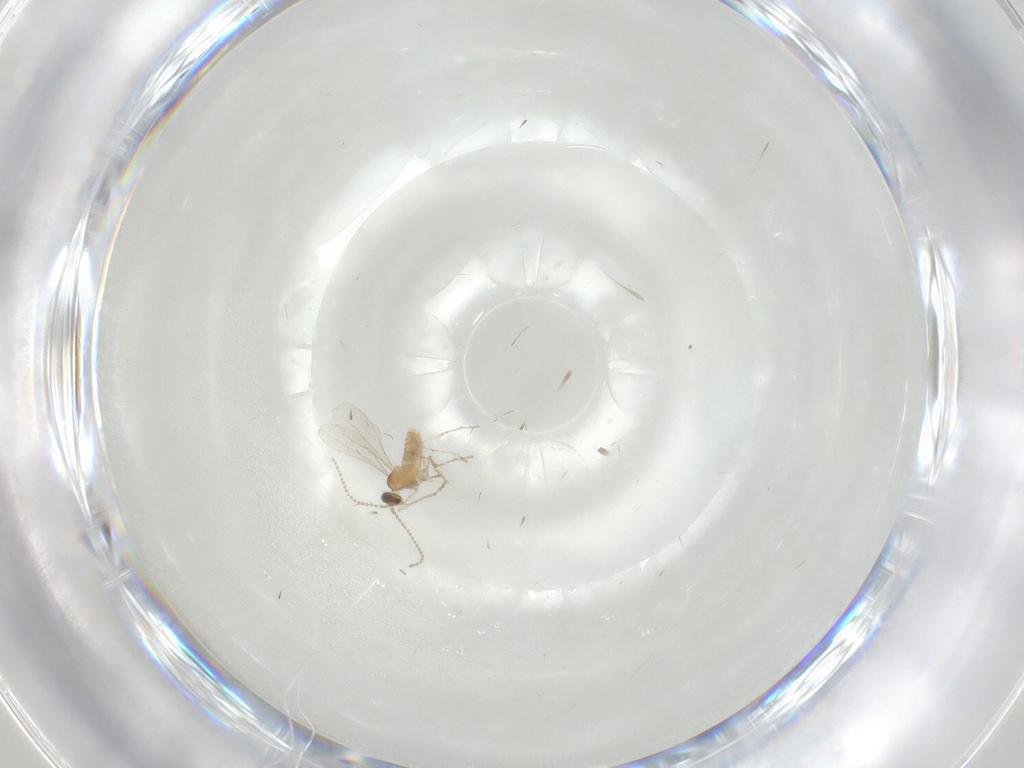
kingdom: Animalia
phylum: Arthropoda
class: Insecta
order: Diptera
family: Cecidomyiidae
